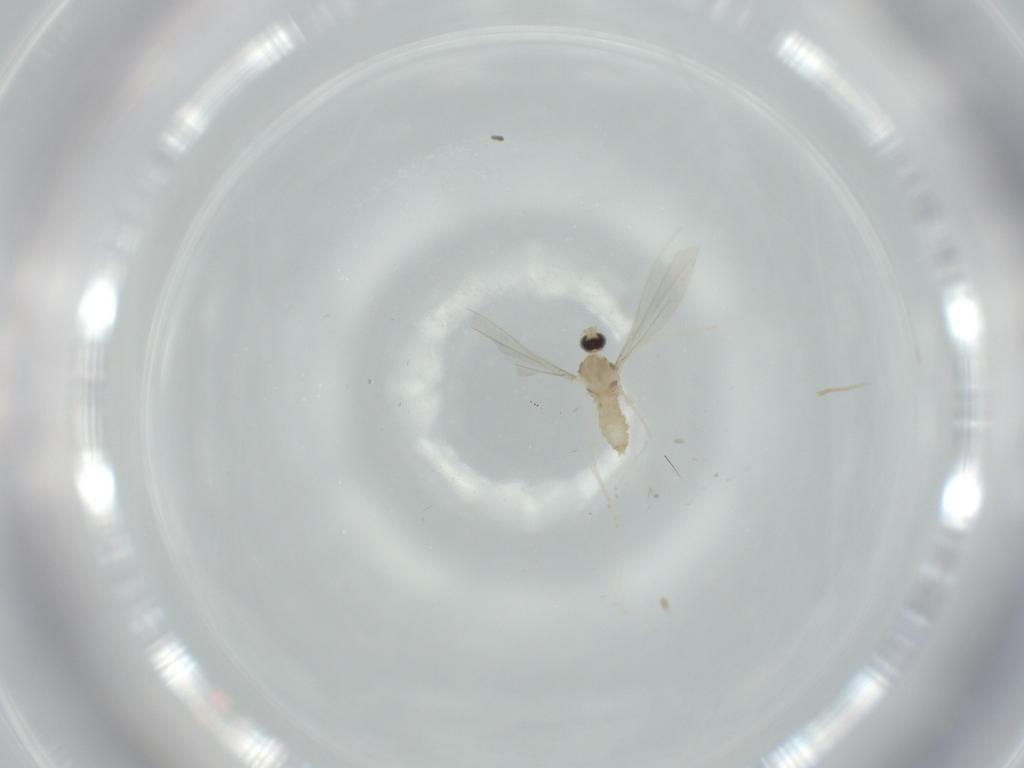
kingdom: Animalia
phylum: Arthropoda
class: Insecta
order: Diptera
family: Cecidomyiidae
